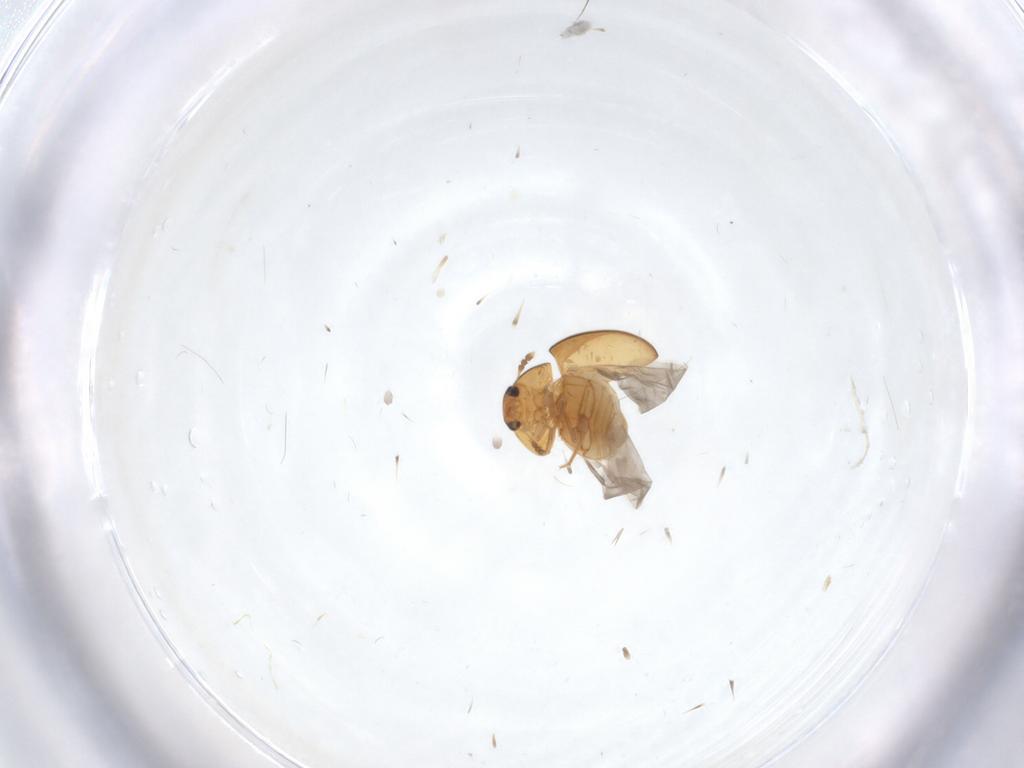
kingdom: Animalia
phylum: Arthropoda
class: Insecta
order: Coleoptera
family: Phalacridae
